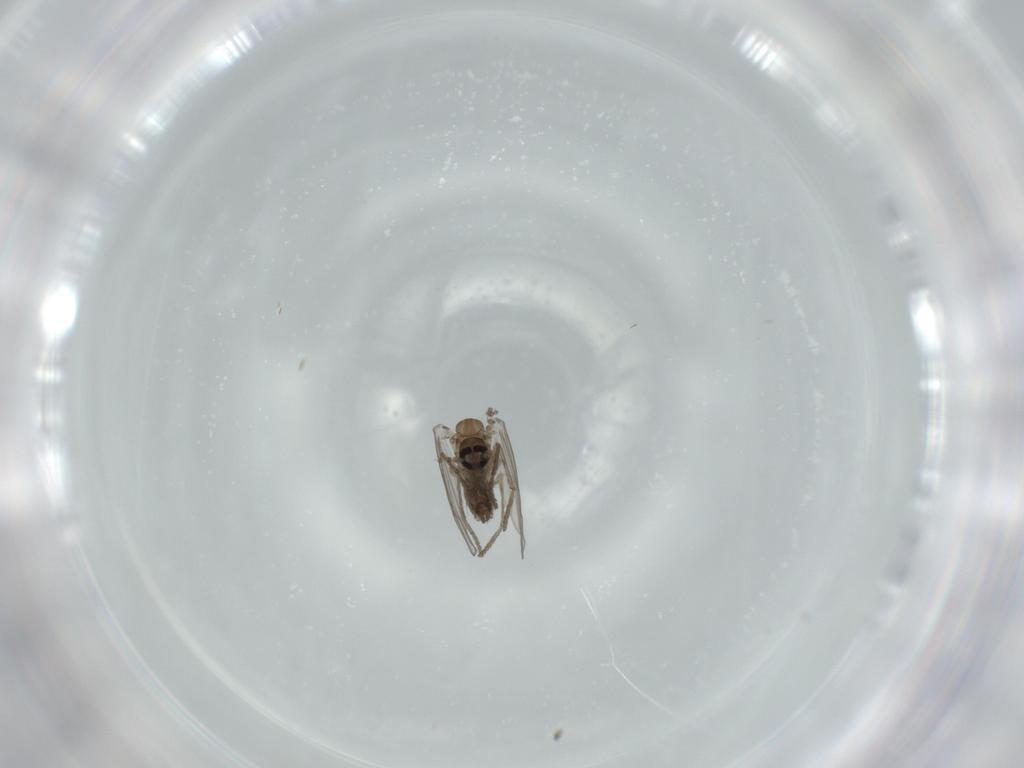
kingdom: Animalia
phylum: Arthropoda
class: Insecta
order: Diptera
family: Psychodidae
